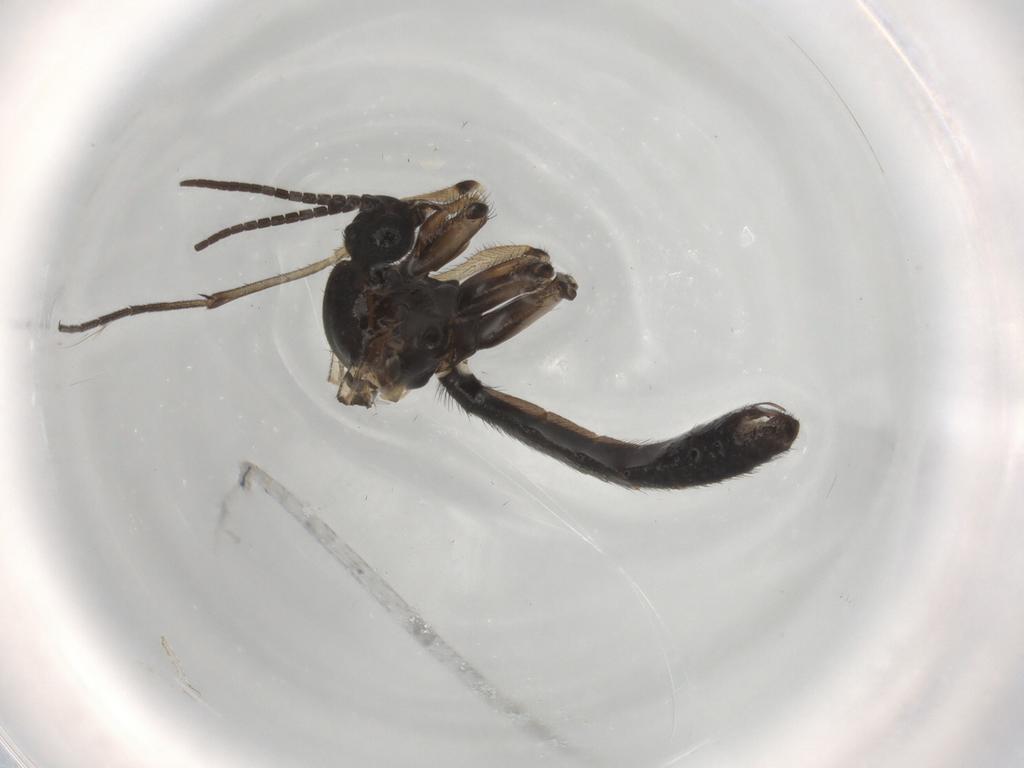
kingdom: Animalia
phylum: Arthropoda
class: Insecta
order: Diptera
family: Keroplatidae
